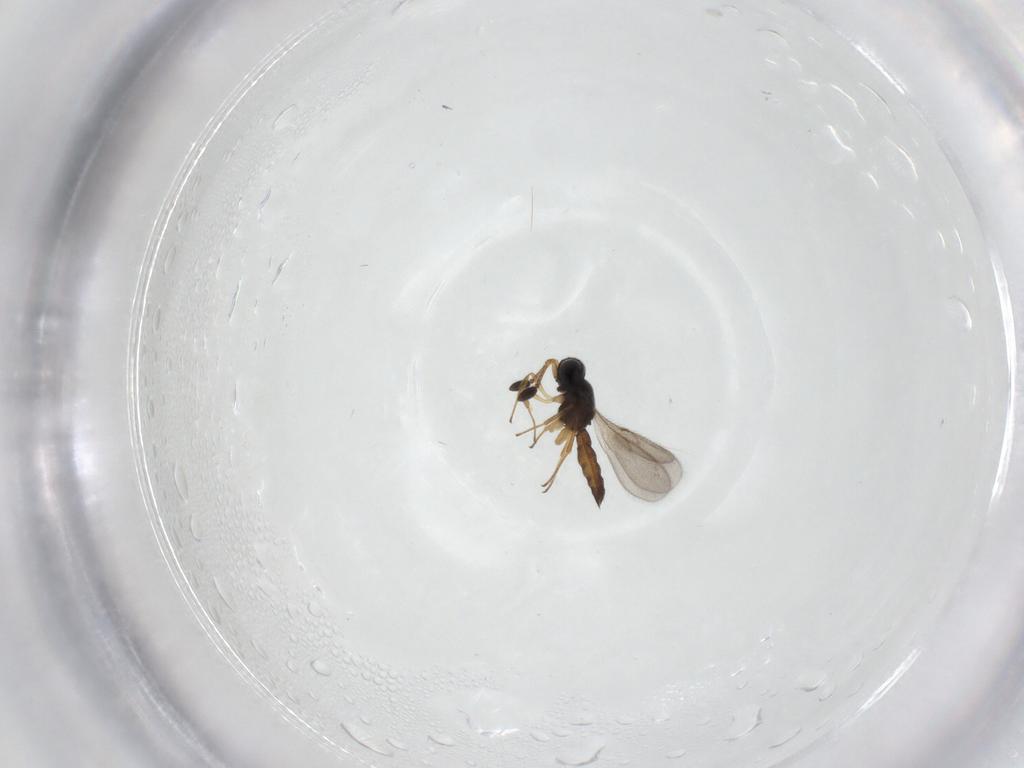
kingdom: Animalia
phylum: Arthropoda
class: Insecta
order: Hymenoptera
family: Scelionidae
